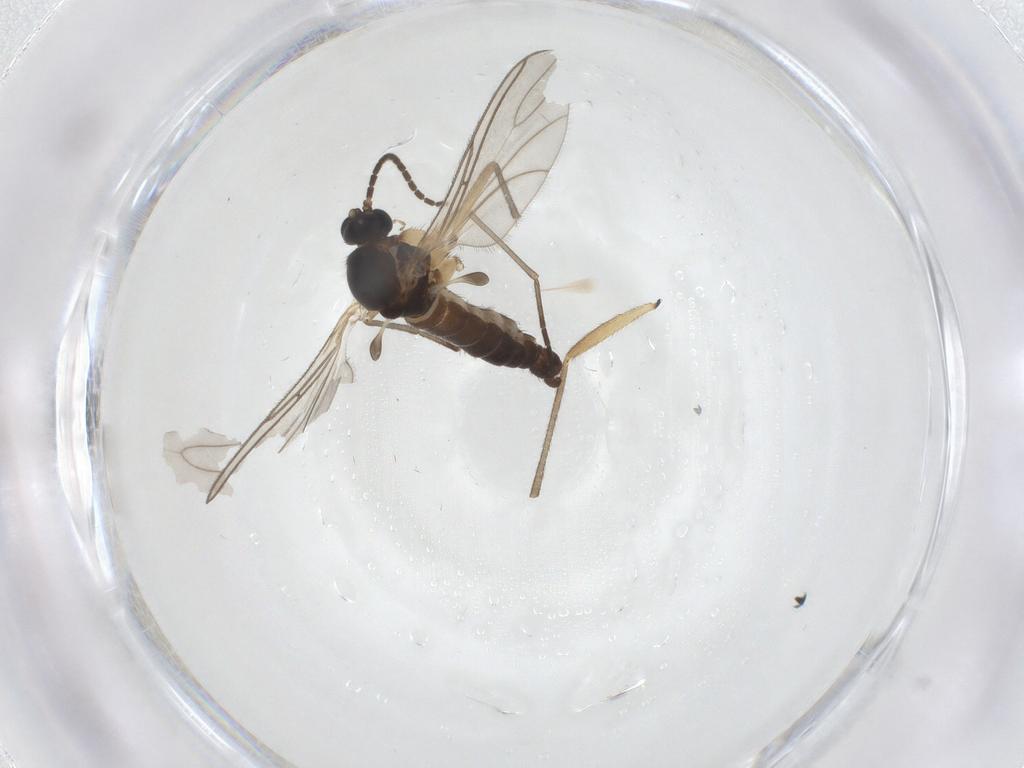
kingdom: Animalia
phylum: Arthropoda
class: Insecta
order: Diptera
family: Sciaridae
